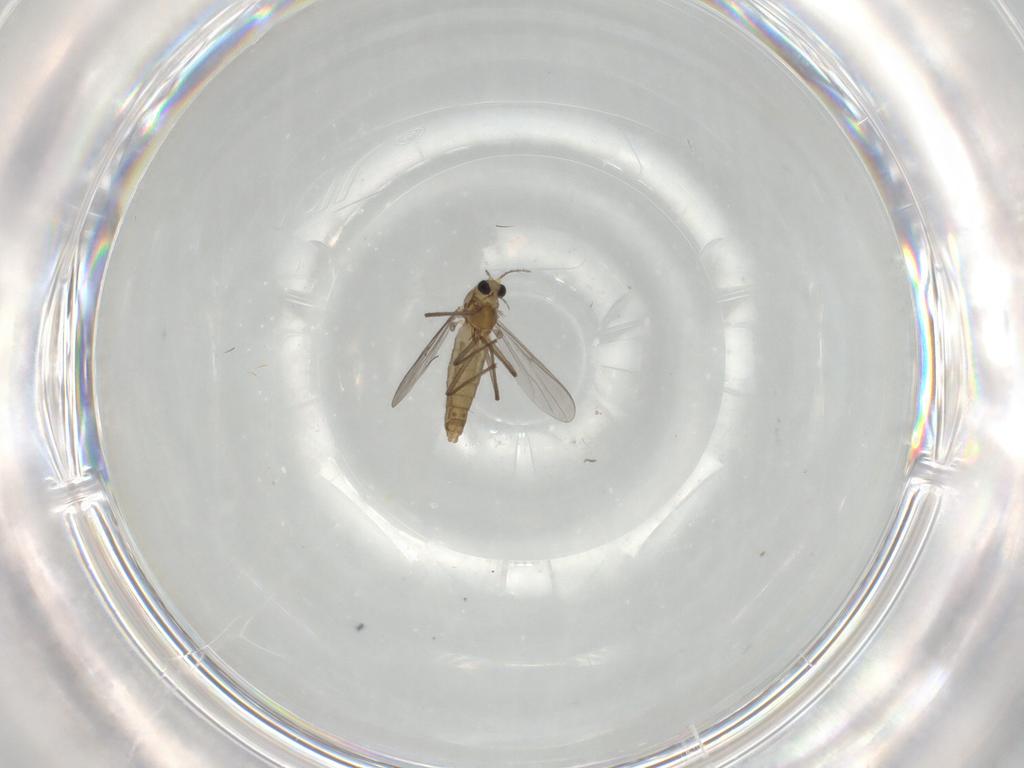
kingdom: Animalia
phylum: Arthropoda
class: Insecta
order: Diptera
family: Cecidomyiidae
